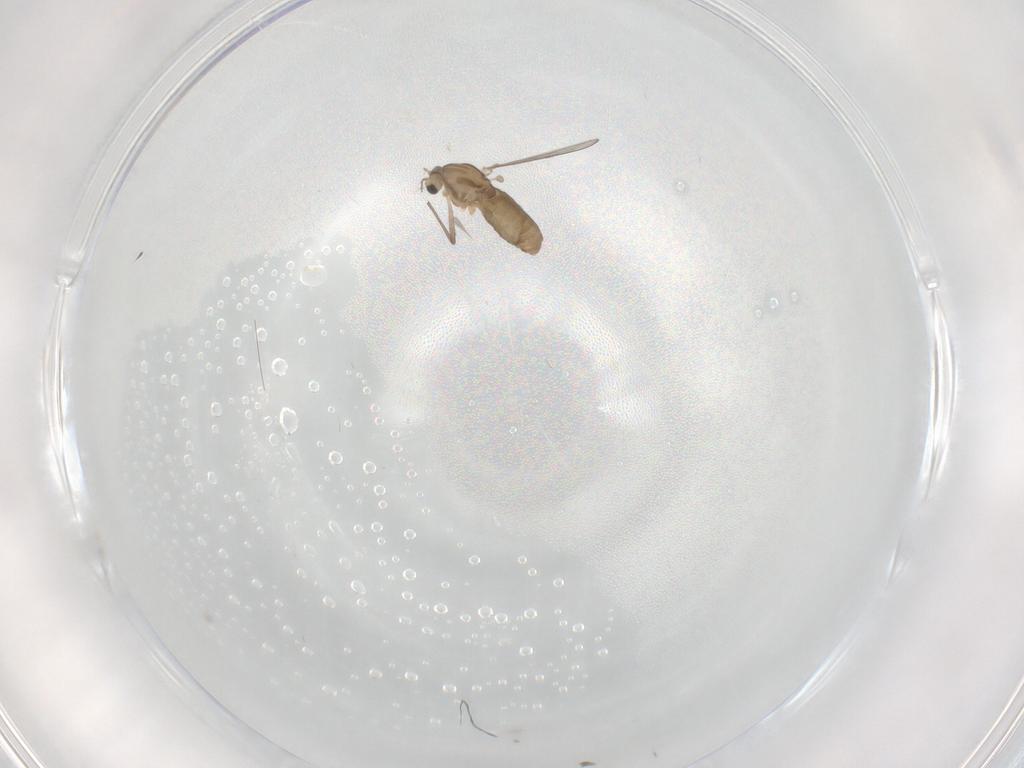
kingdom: Animalia
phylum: Arthropoda
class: Insecta
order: Diptera
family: Chironomidae
